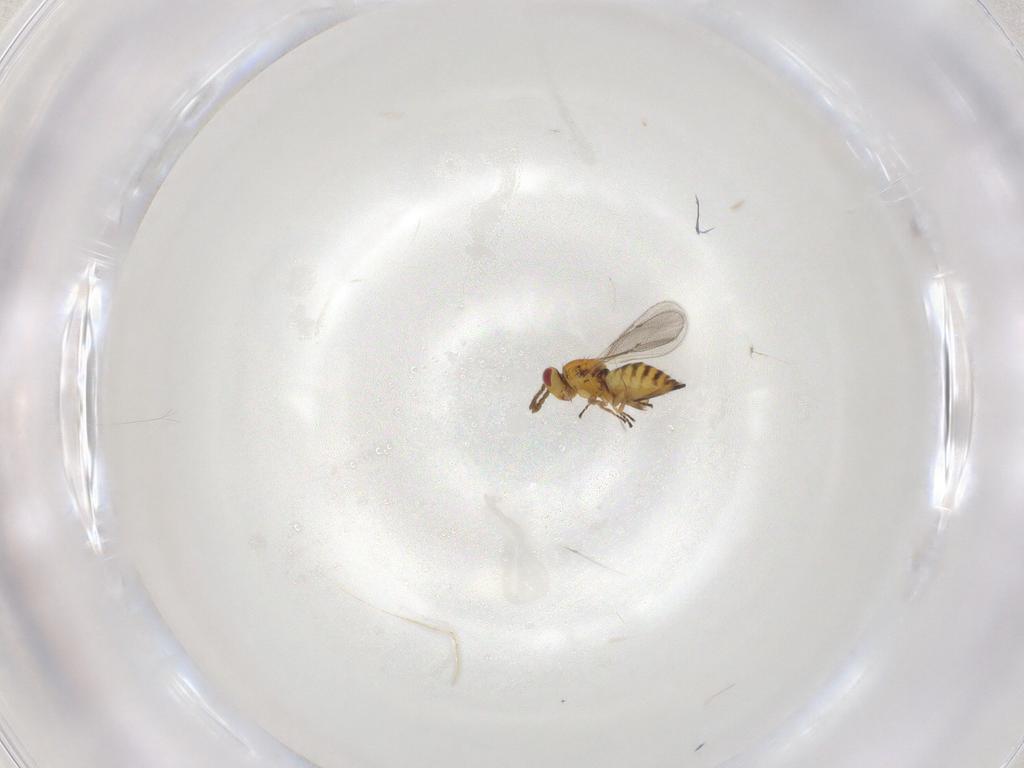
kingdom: Animalia
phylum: Arthropoda
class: Insecta
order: Hymenoptera
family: Eulophidae
